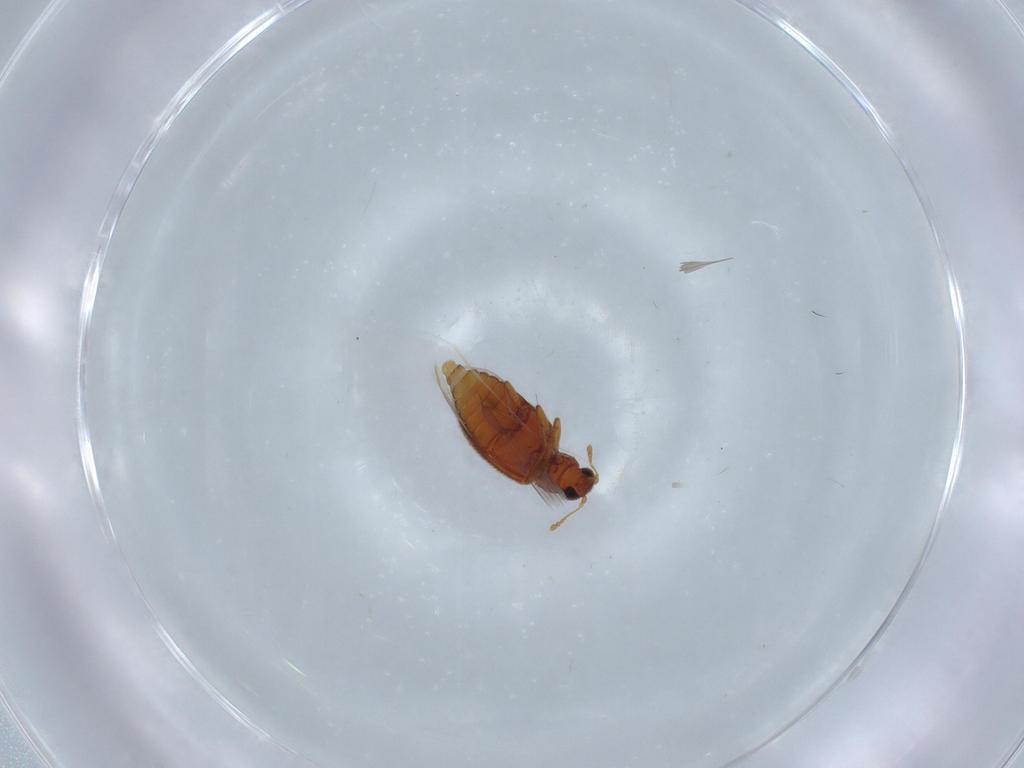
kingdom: Animalia
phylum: Arthropoda
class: Insecta
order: Coleoptera
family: Latridiidae
